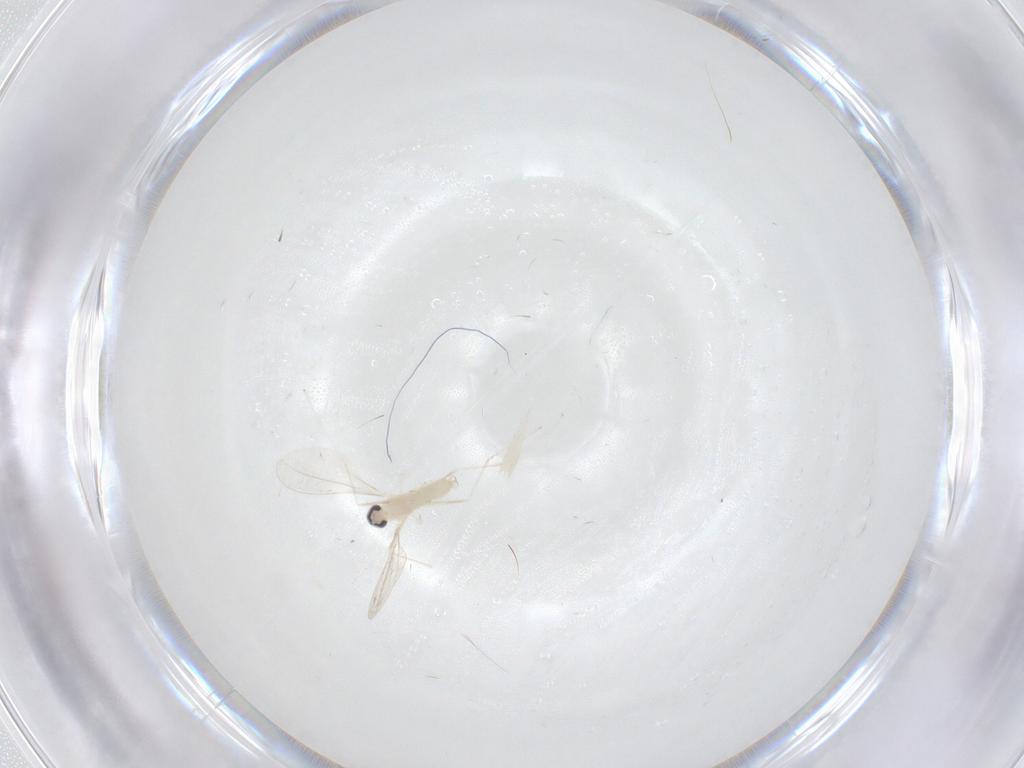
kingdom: Animalia
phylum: Arthropoda
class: Insecta
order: Diptera
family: Cecidomyiidae
